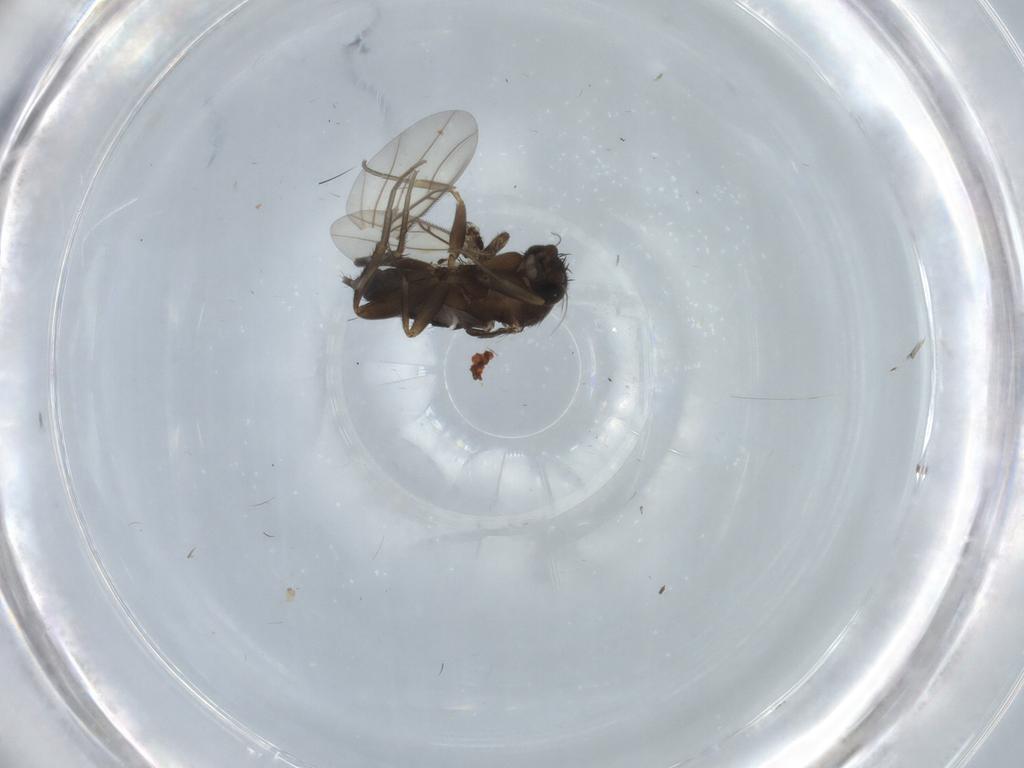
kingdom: Animalia
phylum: Arthropoda
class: Insecta
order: Diptera
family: Phoridae
